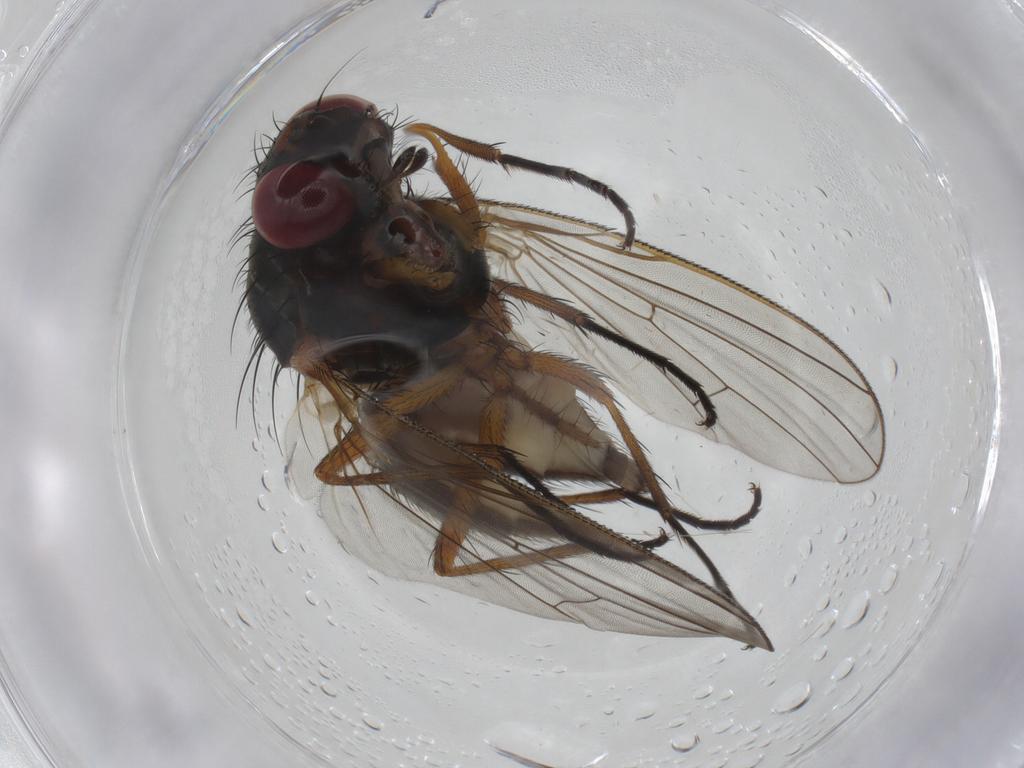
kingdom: Animalia
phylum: Arthropoda
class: Insecta
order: Diptera
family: Anthomyiidae
